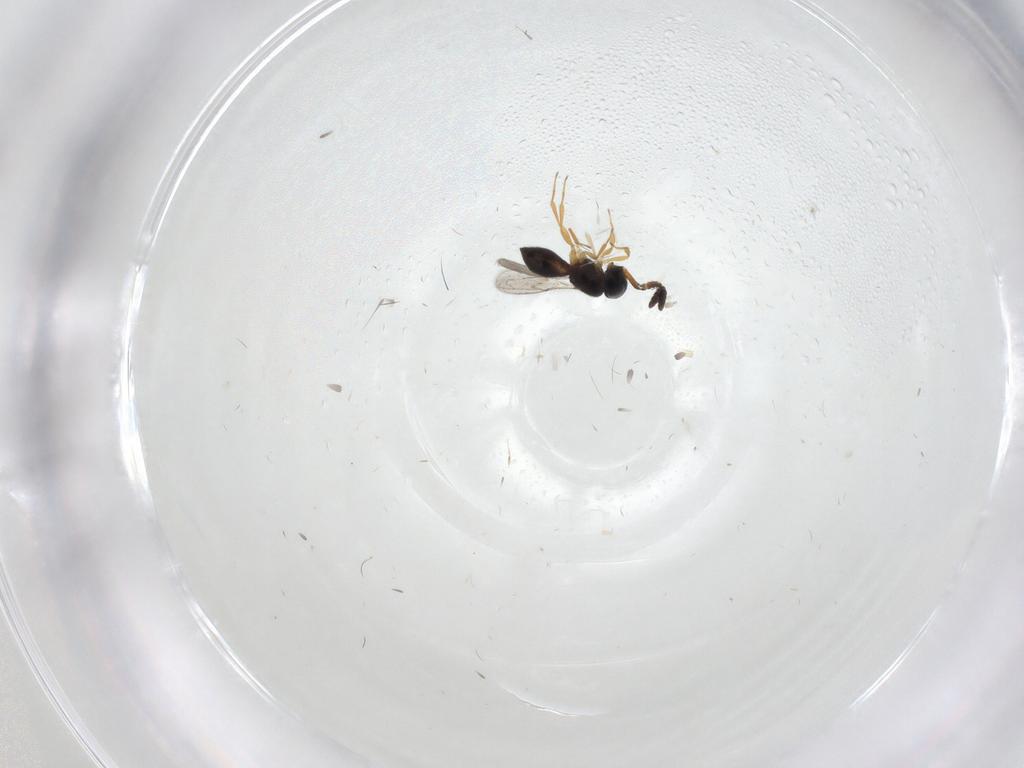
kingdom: Animalia
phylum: Arthropoda
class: Insecta
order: Hymenoptera
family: Scelionidae
